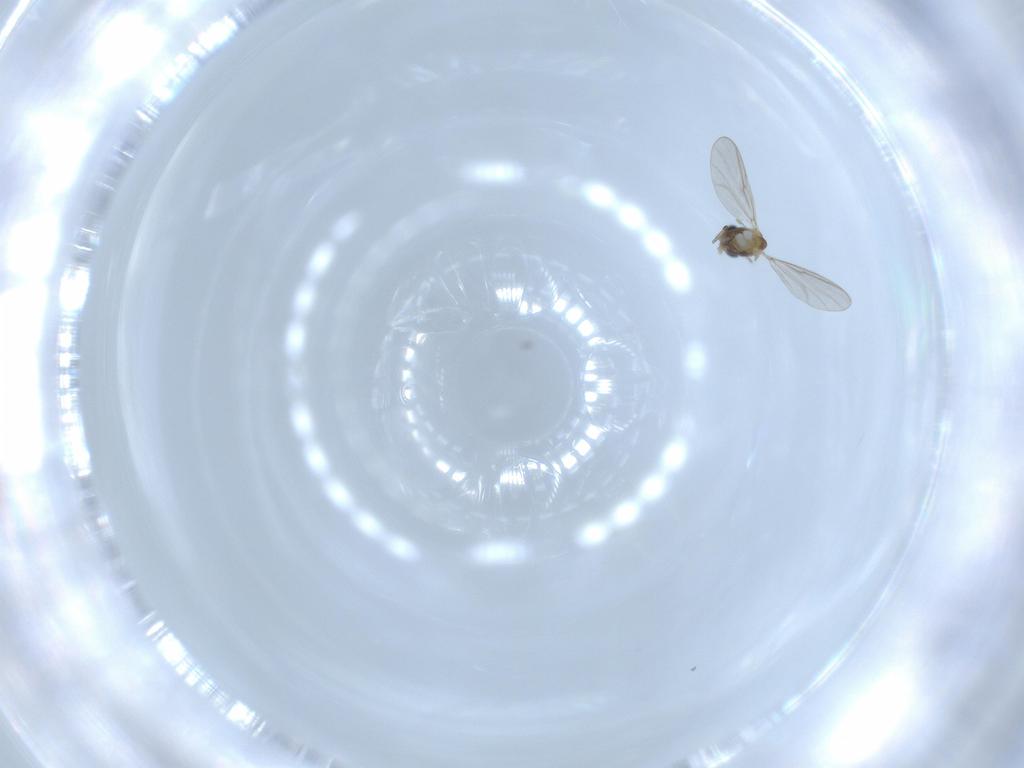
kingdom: Animalia
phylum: Arthropoda
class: Insecta
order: Diptera
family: Chironomidae
